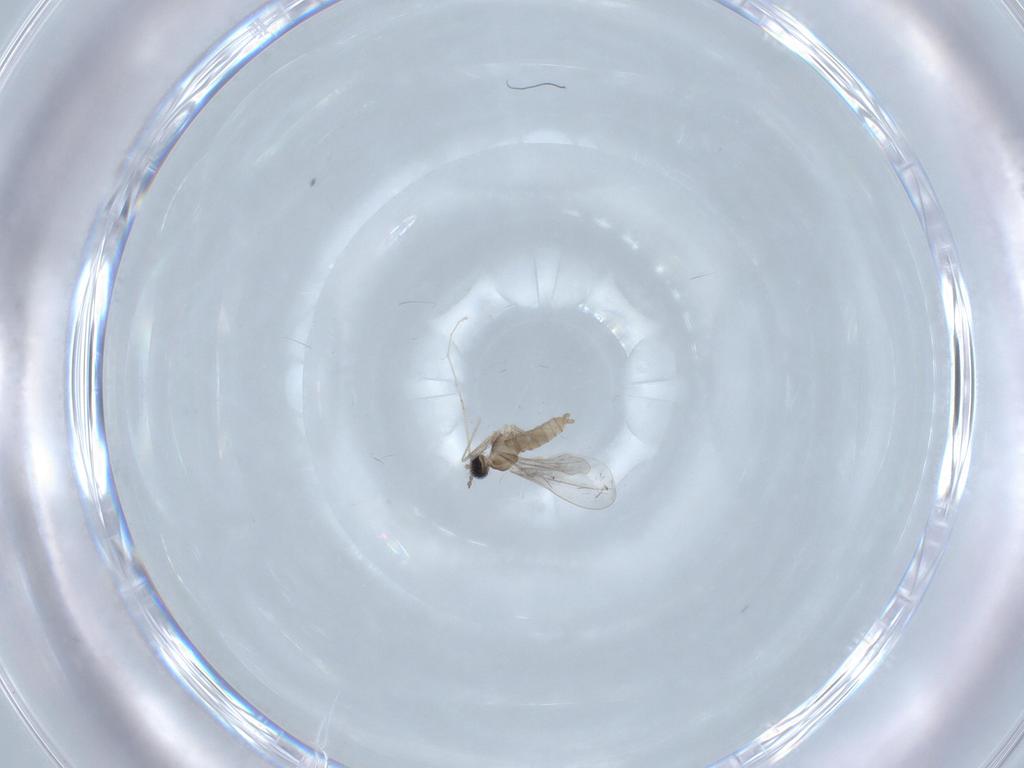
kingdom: Animalia
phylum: Arthropoda
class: Insecta
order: Diptera
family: Cecidomyiidae
